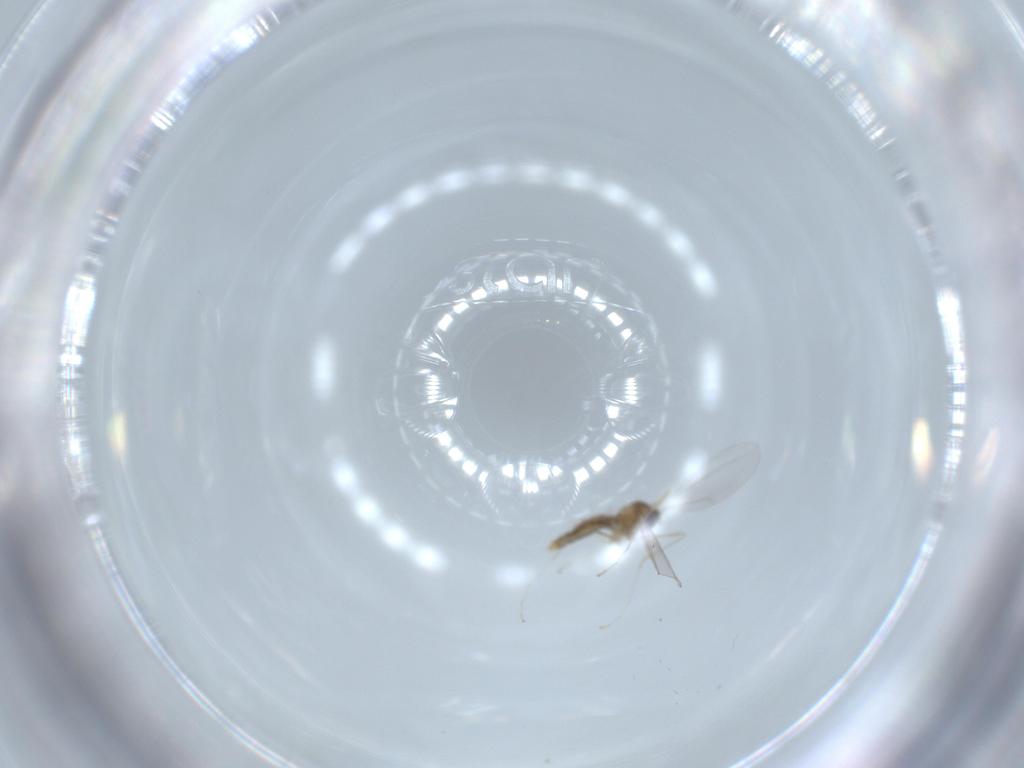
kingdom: Animalia
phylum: Arthropoda
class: Insecta
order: Diptera
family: Cecidomyiidae
